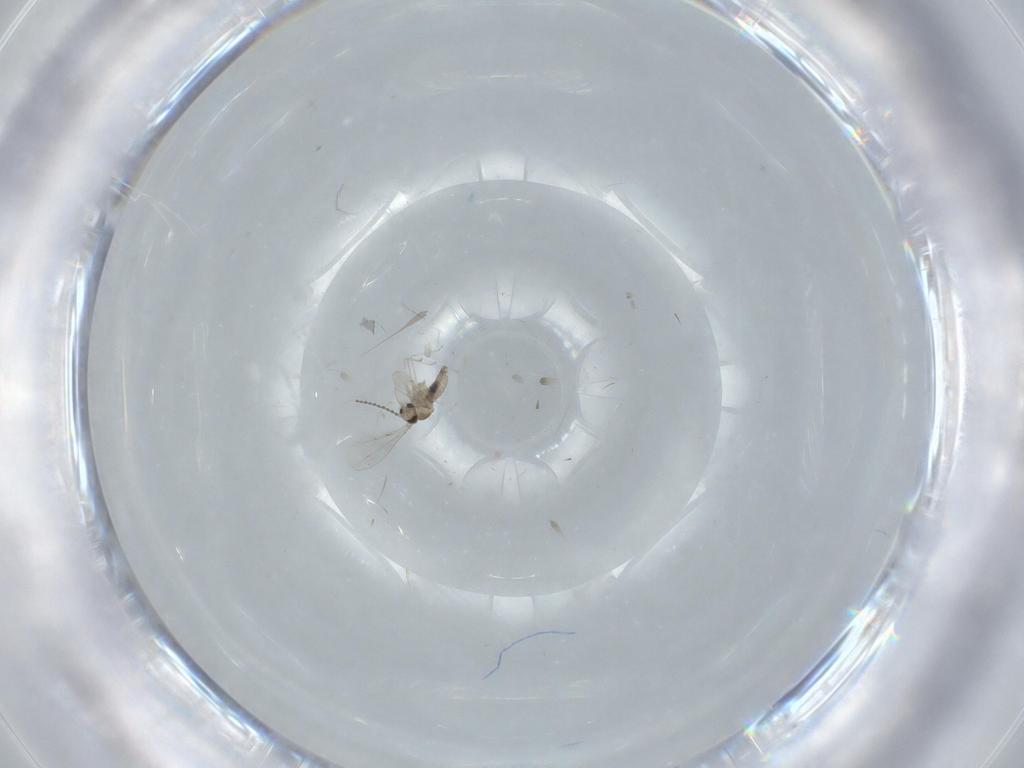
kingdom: Animalia
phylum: Arthropoda
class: Insecta
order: Diptera
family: Cecidomyiidae
